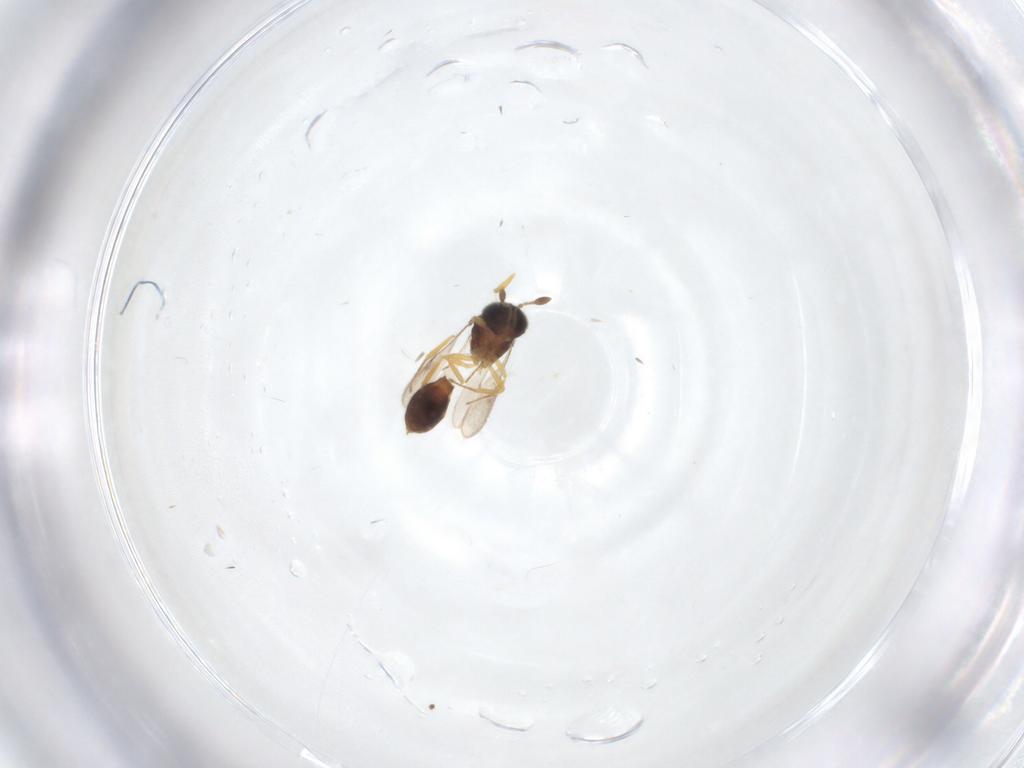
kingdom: Animalia
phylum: Arthropoda
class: Insecta
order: Hymenoptera
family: Scelionidae
